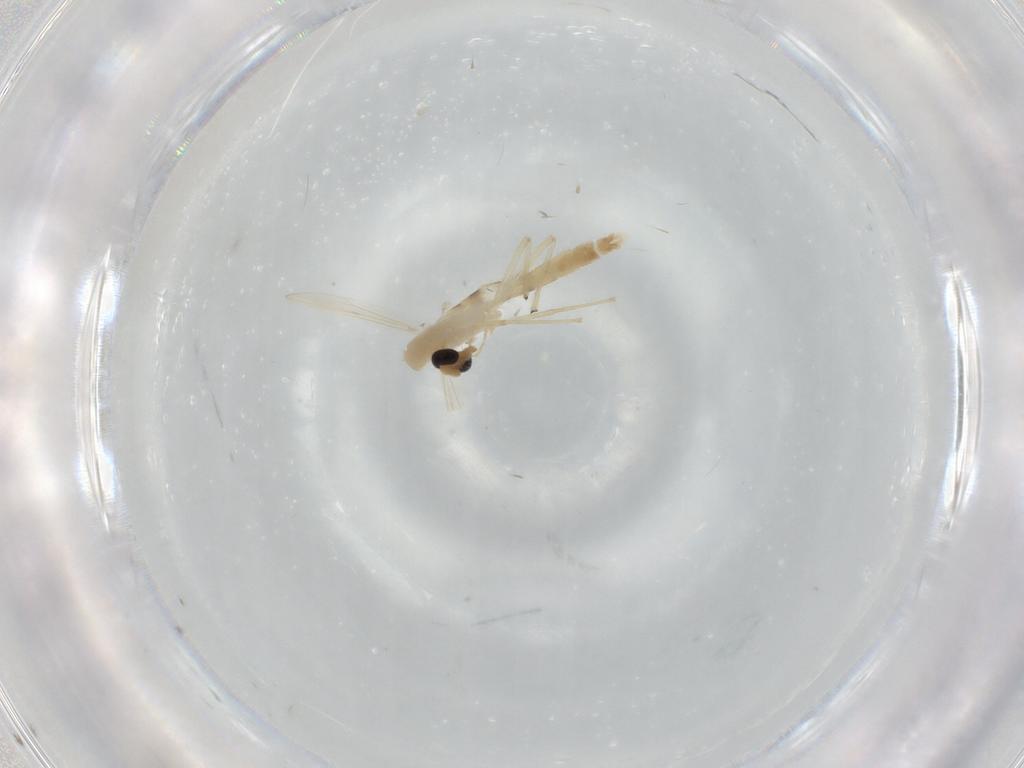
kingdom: Animalia
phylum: Arthropoda
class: Insecta
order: Diptera
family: Chironomidae
